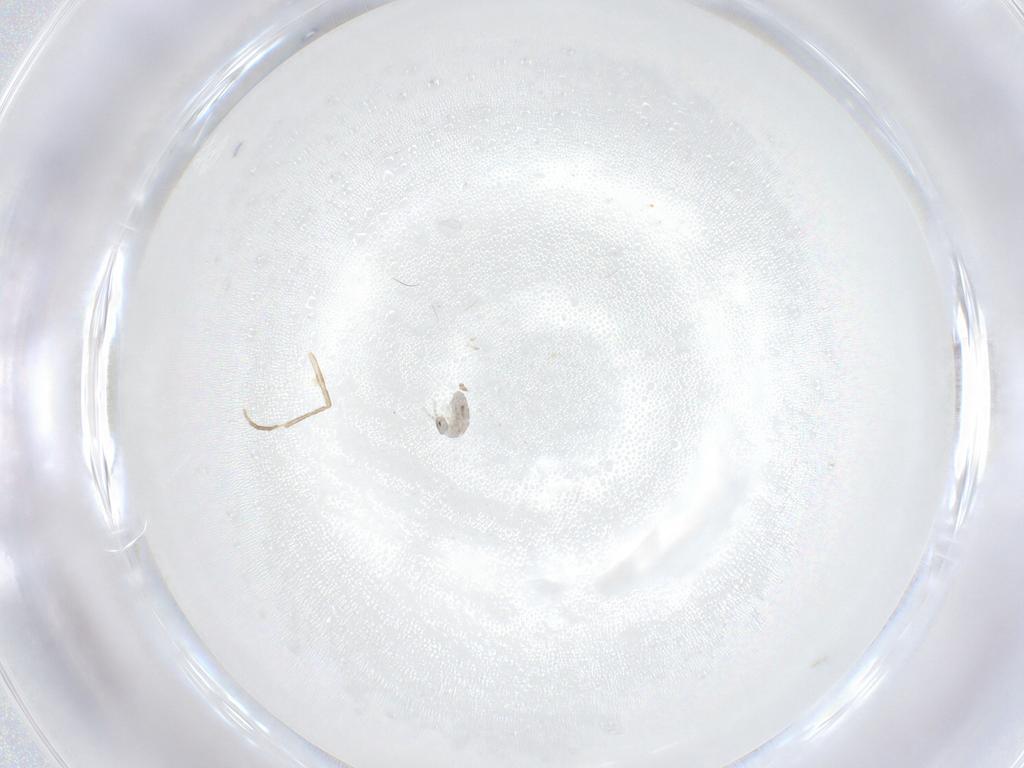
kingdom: Animalia
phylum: Arthropoda
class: Collembola
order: Entomobryomorpha
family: Isotomidae
